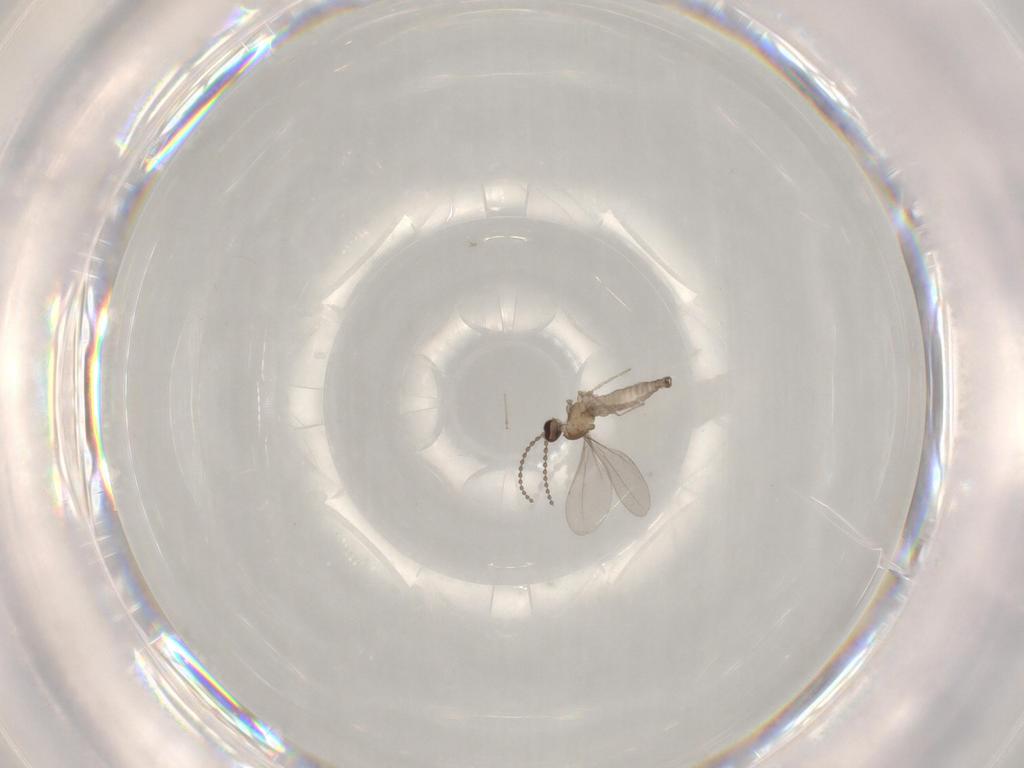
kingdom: Animalia
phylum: Arthropoda
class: Insecta
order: Diptera
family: Cecidomyiidae
